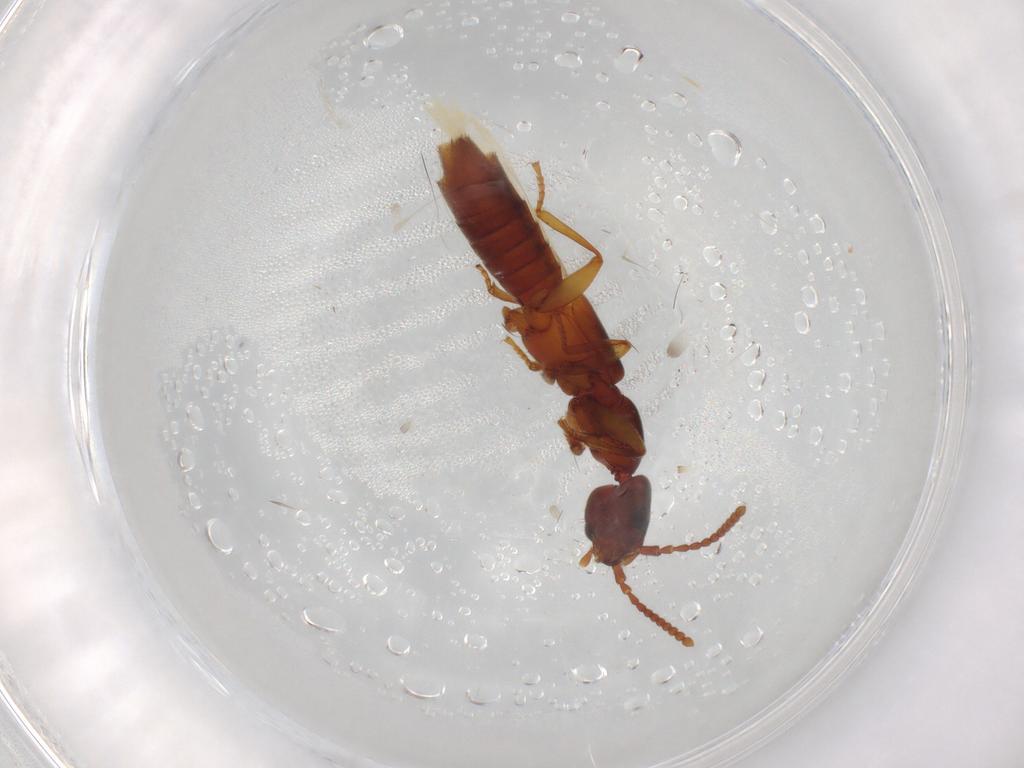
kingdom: Animalia
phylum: Arthropoda
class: Insecta
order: Coleoptera
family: Staphylinidae
